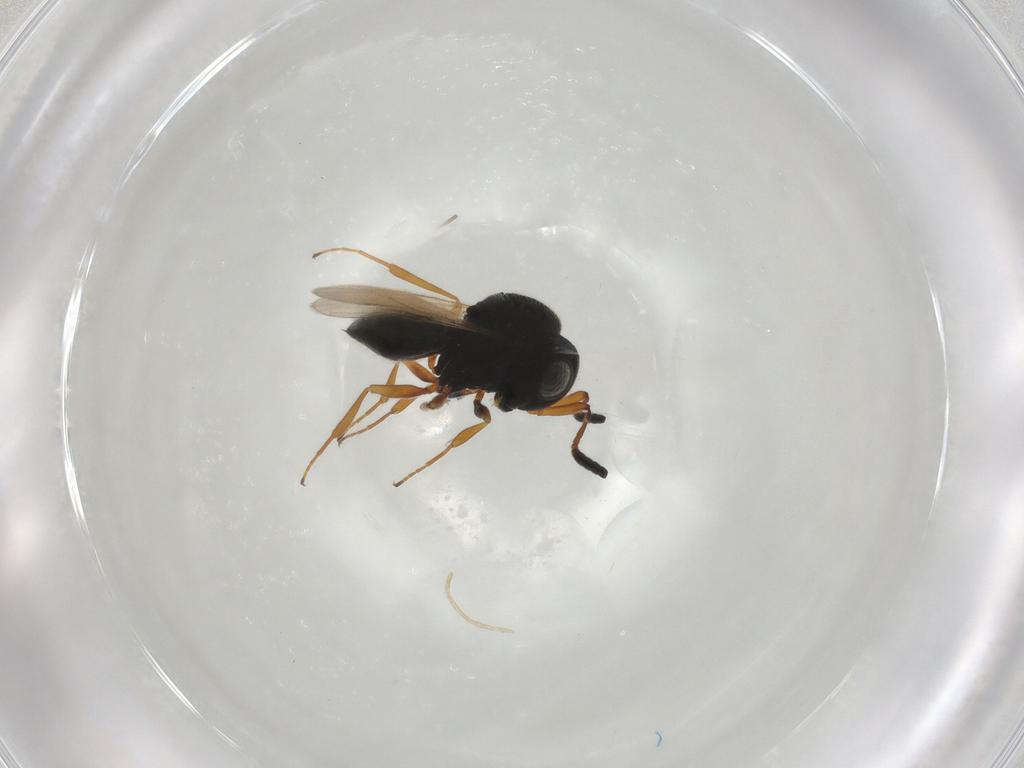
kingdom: Animalia
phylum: Arthropoda
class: Insecta
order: Hymenoptera
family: Scelionidae
